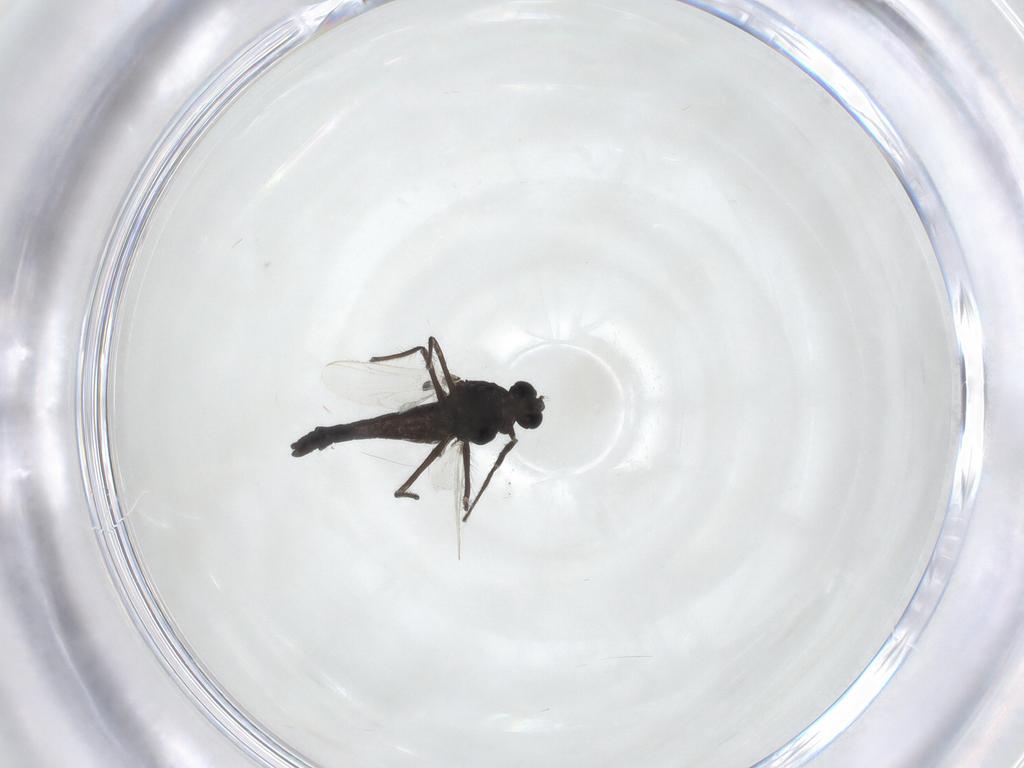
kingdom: Animalia
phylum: Arthropoda
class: Insecta
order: Diptera
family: Chironomidae
